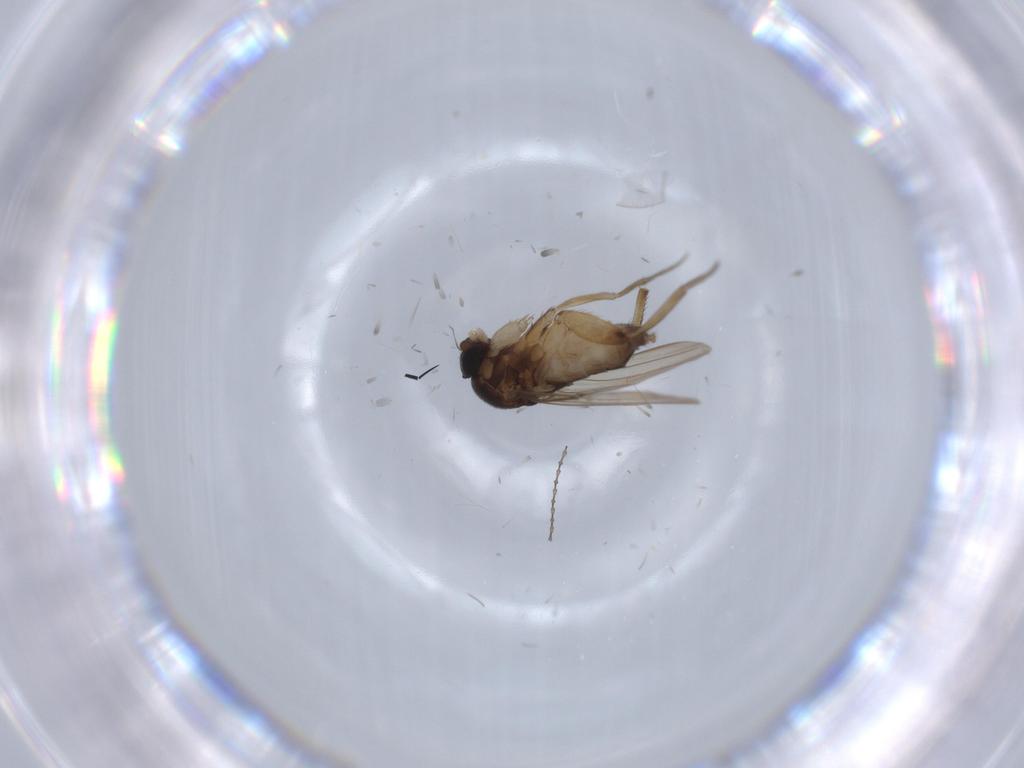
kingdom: Animalia
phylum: Arthropoda
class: Insecta
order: Diptera
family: Phoridae
